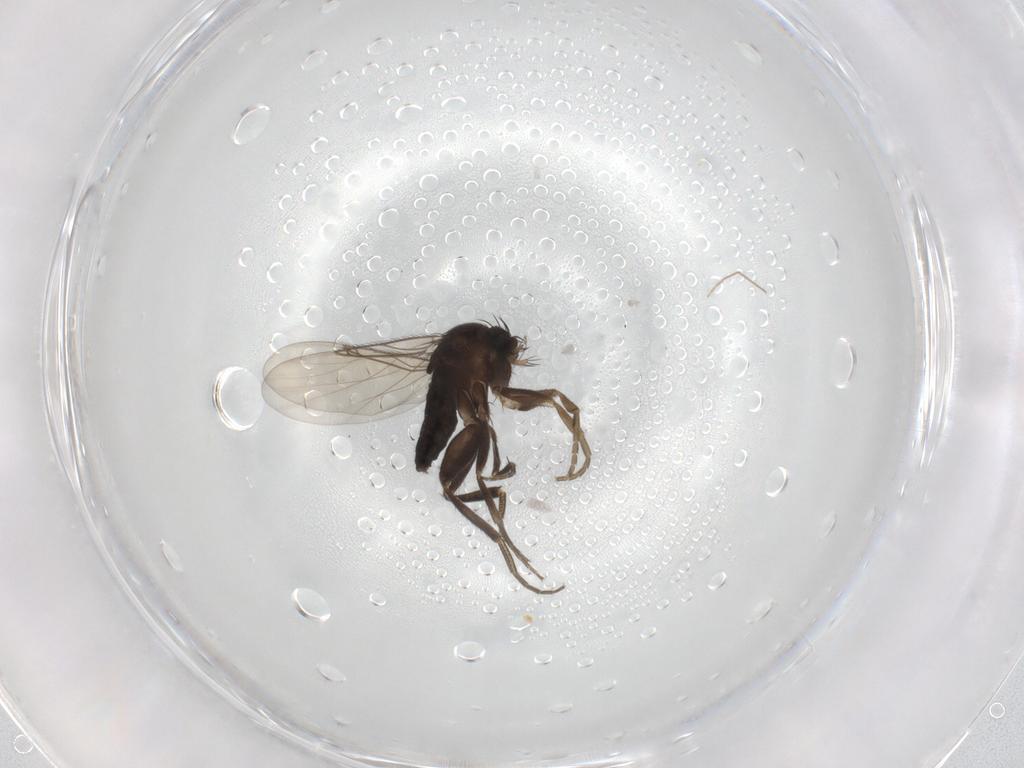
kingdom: Animalia
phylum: Arthropoda
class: Insecta
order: Diptera
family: Phoridae
